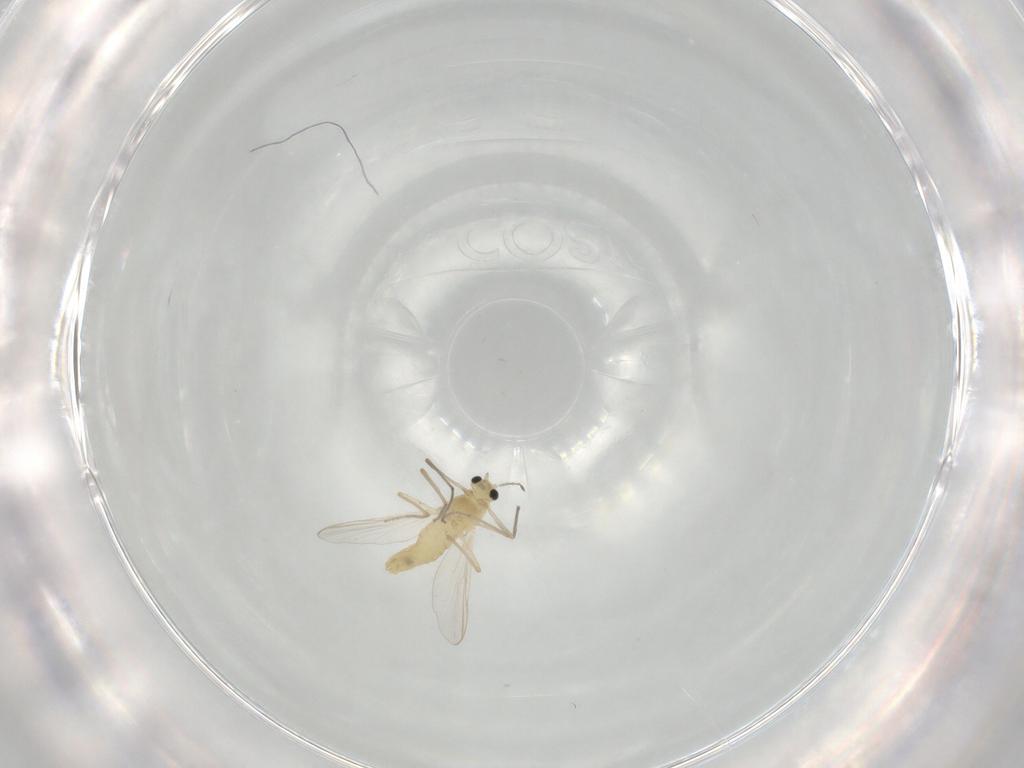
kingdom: Animalia
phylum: Arthropoda
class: Insecta
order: Diptera
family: Chironomidae
